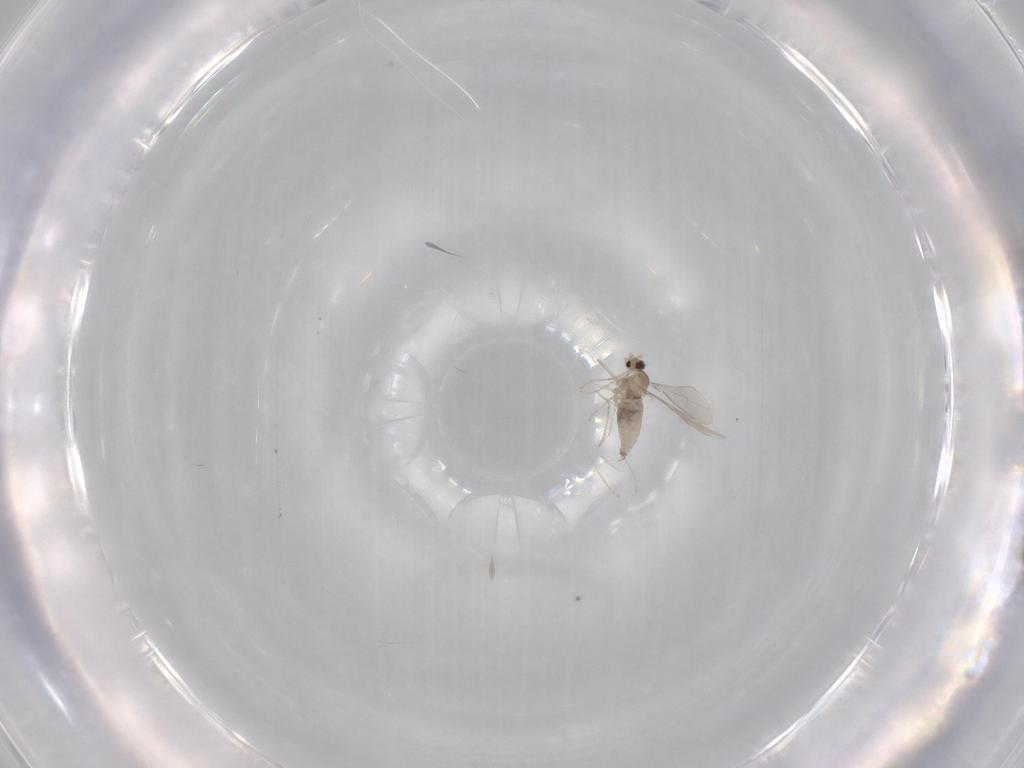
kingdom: Animalia
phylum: Arthropoda
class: Insecta
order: Diptera
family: Cecidomyiidae
